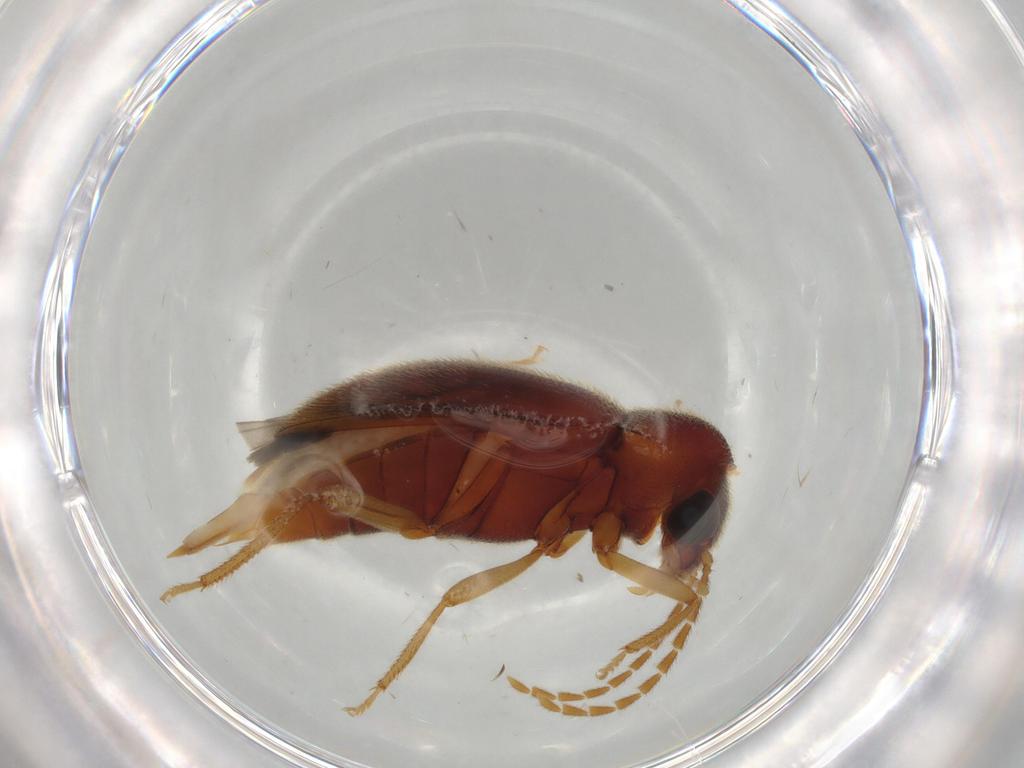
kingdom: Animalia
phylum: Arthropoda
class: Insecta
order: Coleoptera
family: Ptilodactylidae
